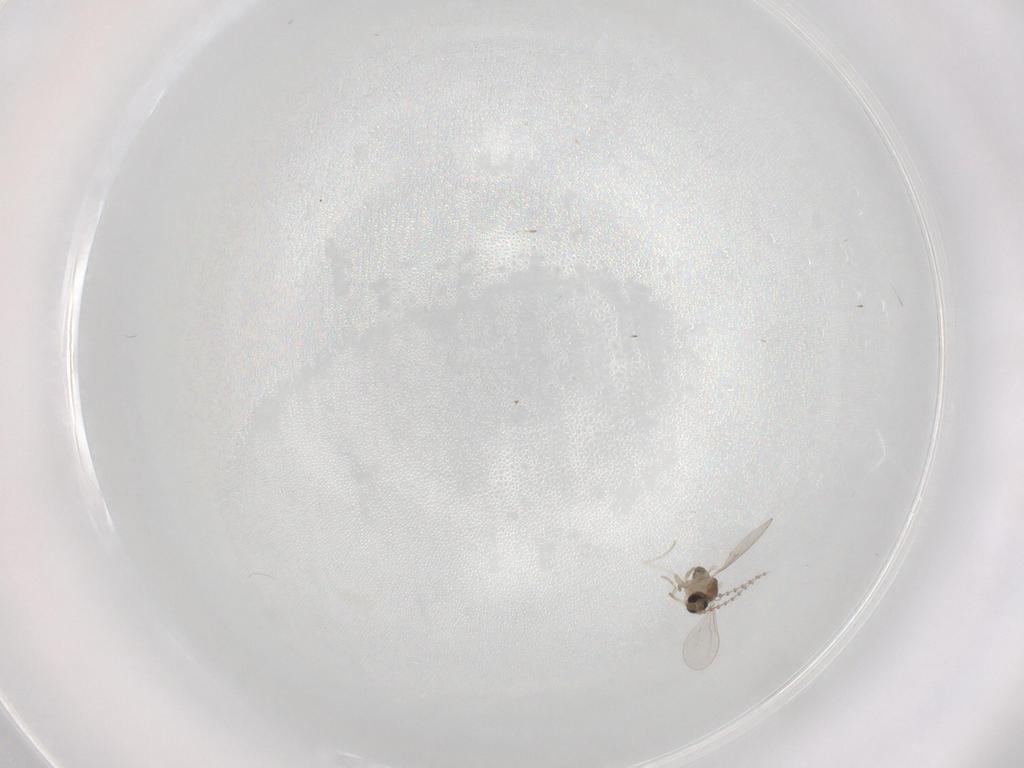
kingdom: Animalia
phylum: Arthropoda
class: Insecta
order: Diptera
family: Cecidomyiidae
